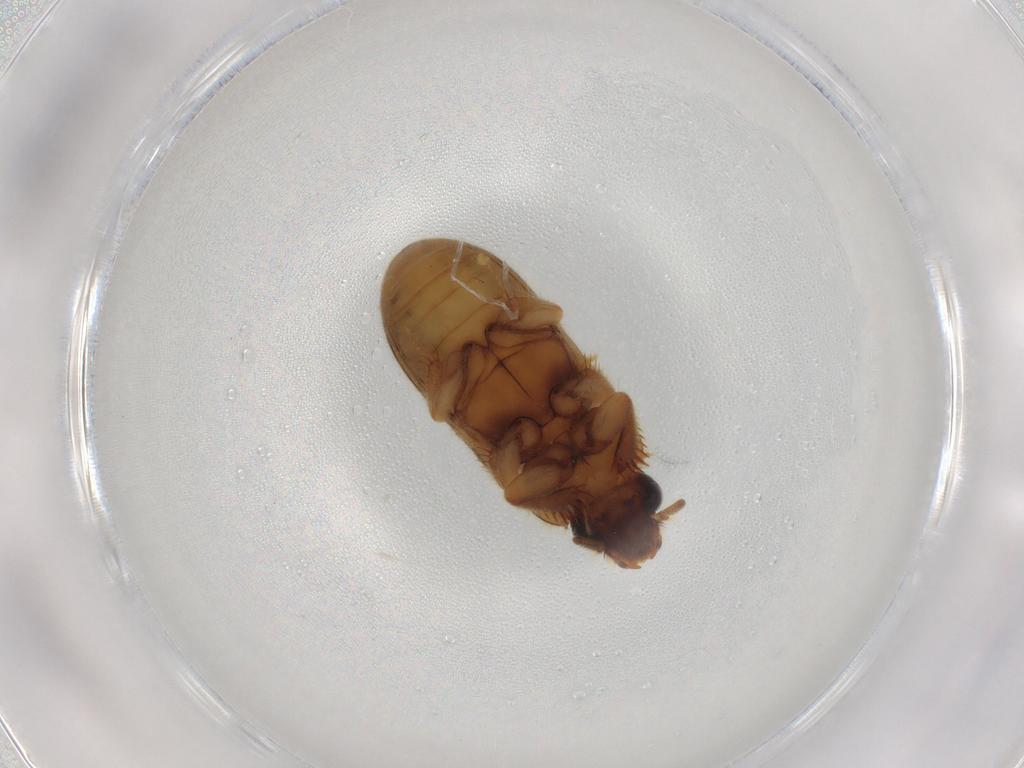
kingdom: Animalia
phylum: Arthropoda
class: Insecta
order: Coleoptera
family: Heteroceridae
